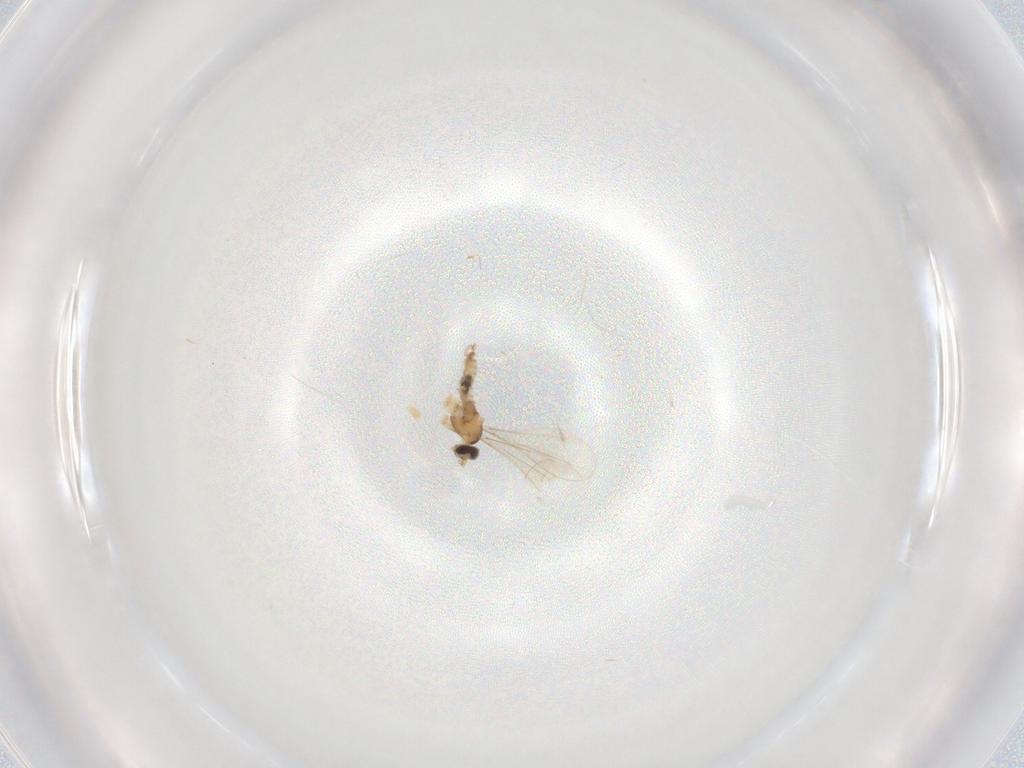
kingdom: Animalia
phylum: Arthropoda
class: Insecta
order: Diptera
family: Cecidomyiidae
